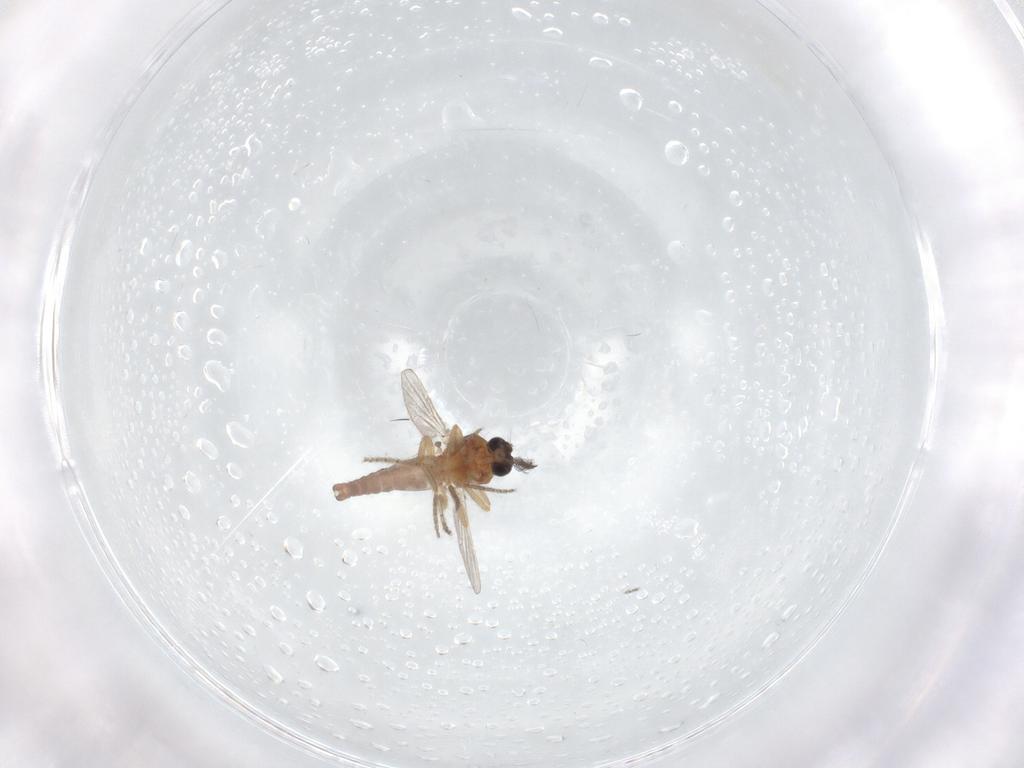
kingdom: Animalia
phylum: Arthropoda
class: Insecta
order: Diptera
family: Ceratopogonidae
